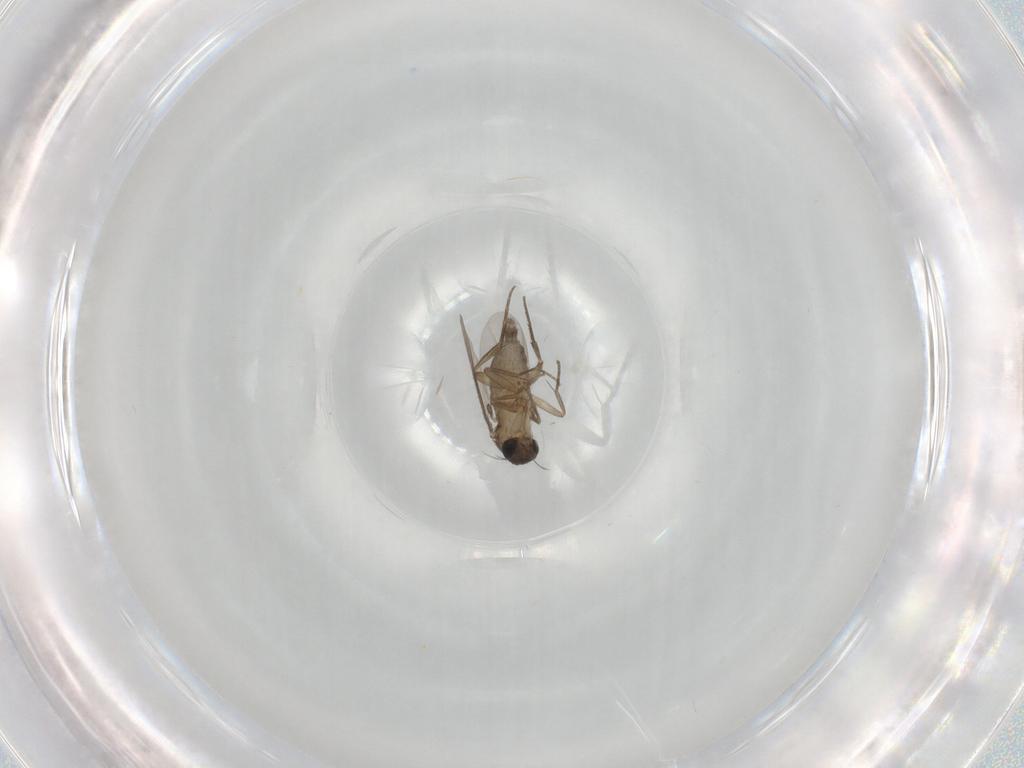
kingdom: Animalia
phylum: Arthropoda
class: Insecta
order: Diptera
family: Phoridae
